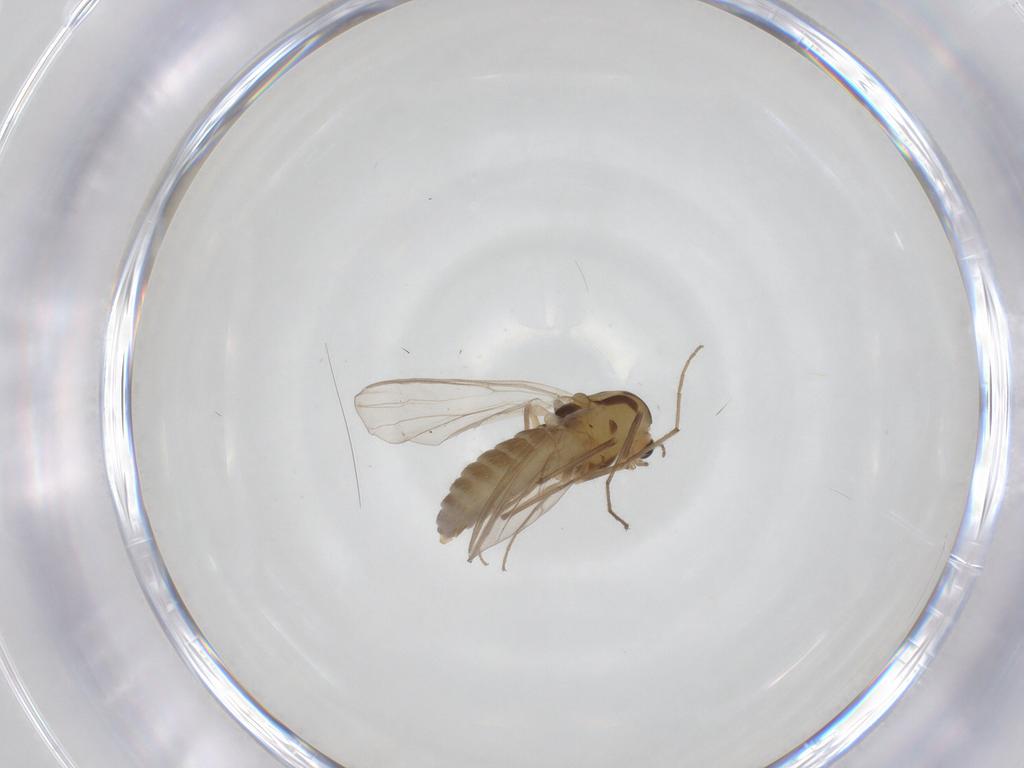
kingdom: Animalia
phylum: Arthropoda
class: Insecta
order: Diptera
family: Chironomidae
